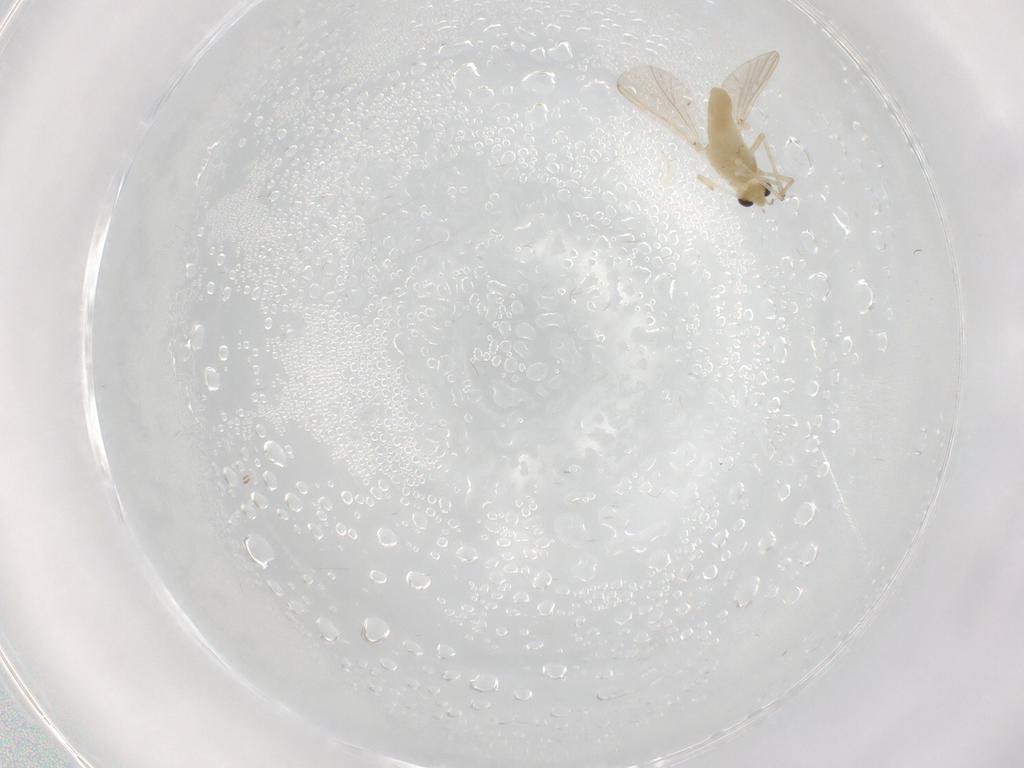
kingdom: Animalia
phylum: Arthropoda
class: Insecta
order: Diptera
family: Chironomidae
